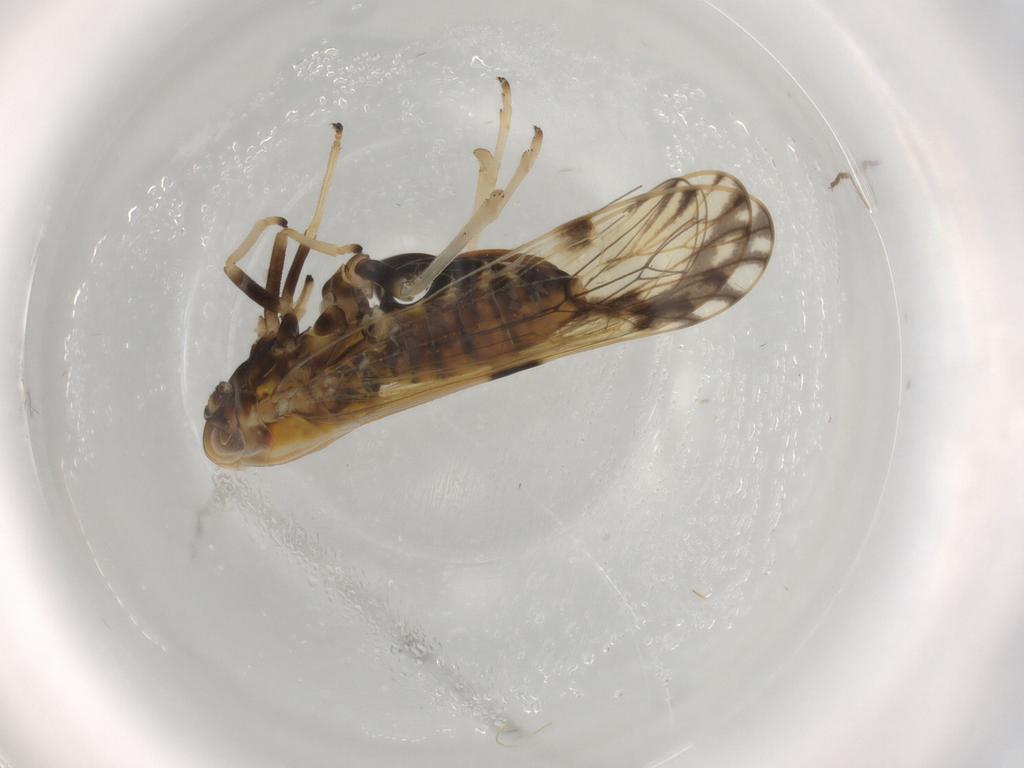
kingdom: Animalia
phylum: Arthropoda
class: Insecta
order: Hemiptera
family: Delphacidae
